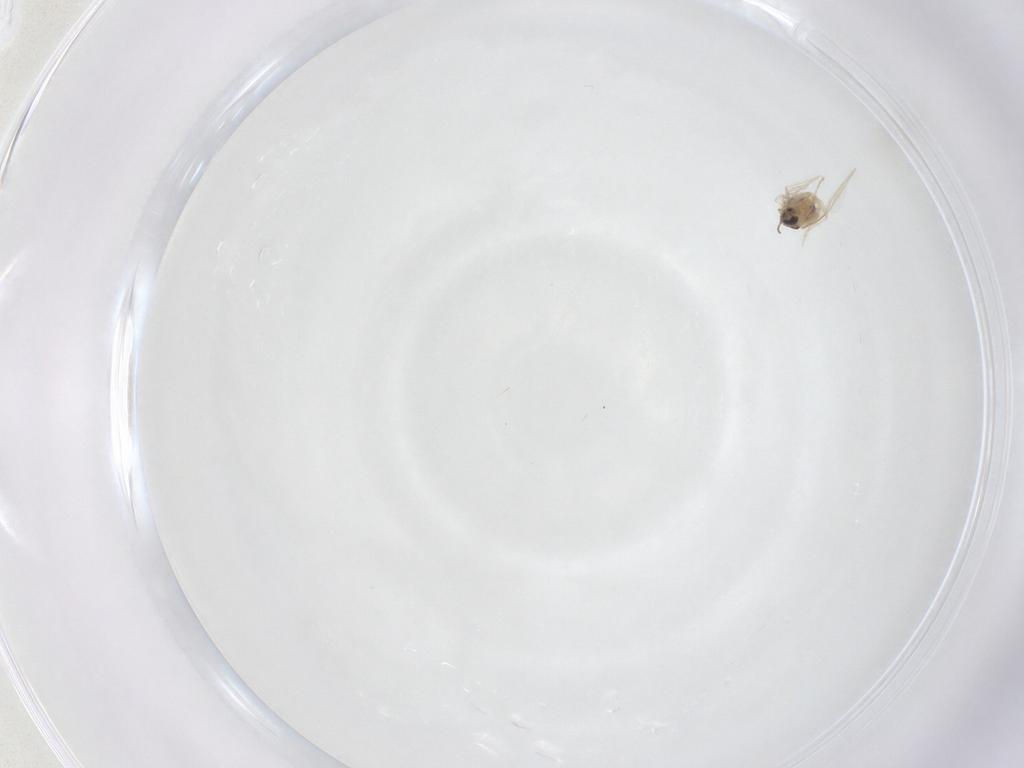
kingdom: Animalia
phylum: Arthropoda
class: Insecta
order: Diptera
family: Cecidomyiidae
